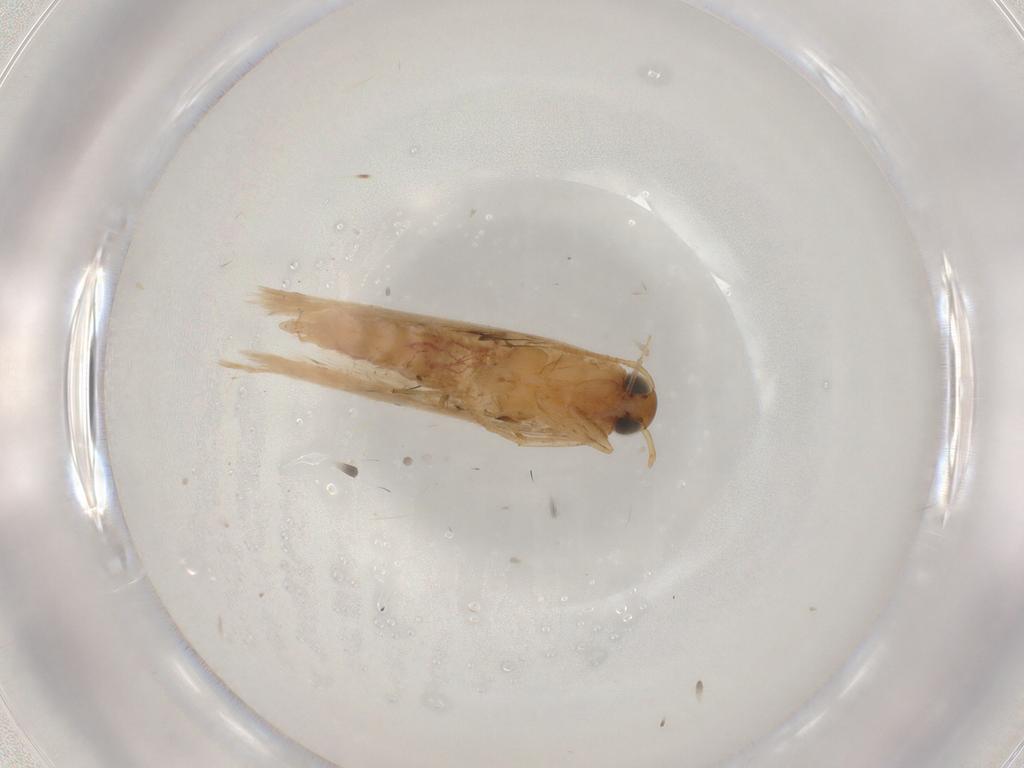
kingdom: Animalia
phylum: Arthropoda
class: Insecta
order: Lepidoptera
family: Gelechiidae
